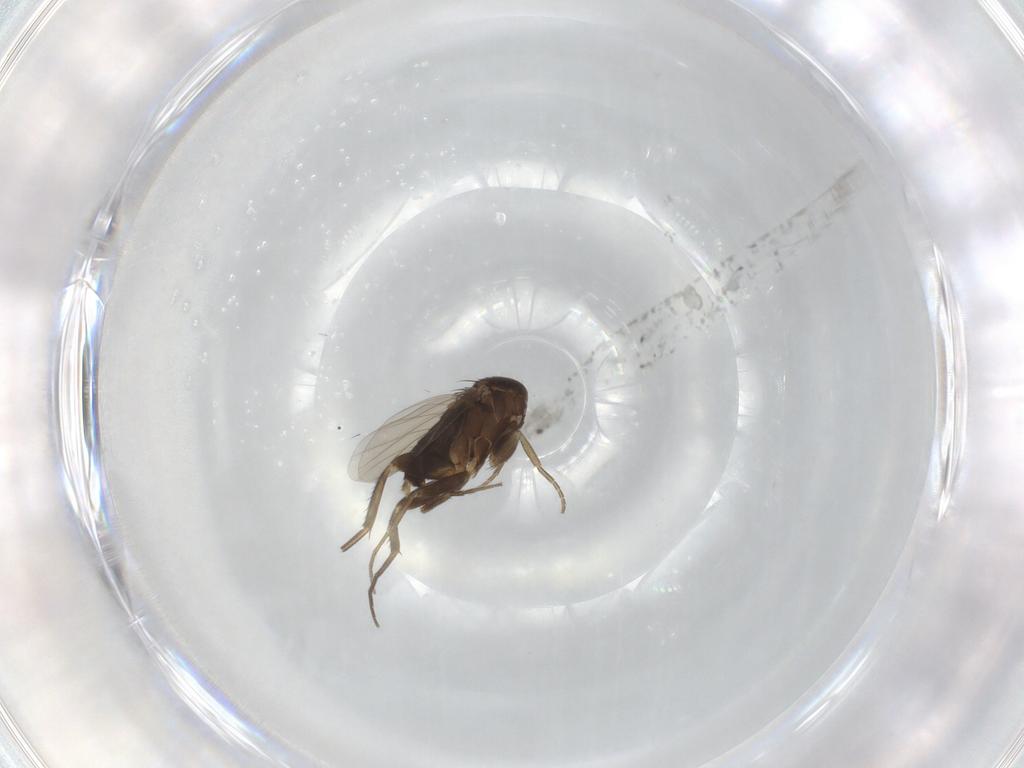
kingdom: Animalia
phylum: Arthropoda
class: Insecta
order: Diptera
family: Phoridae
